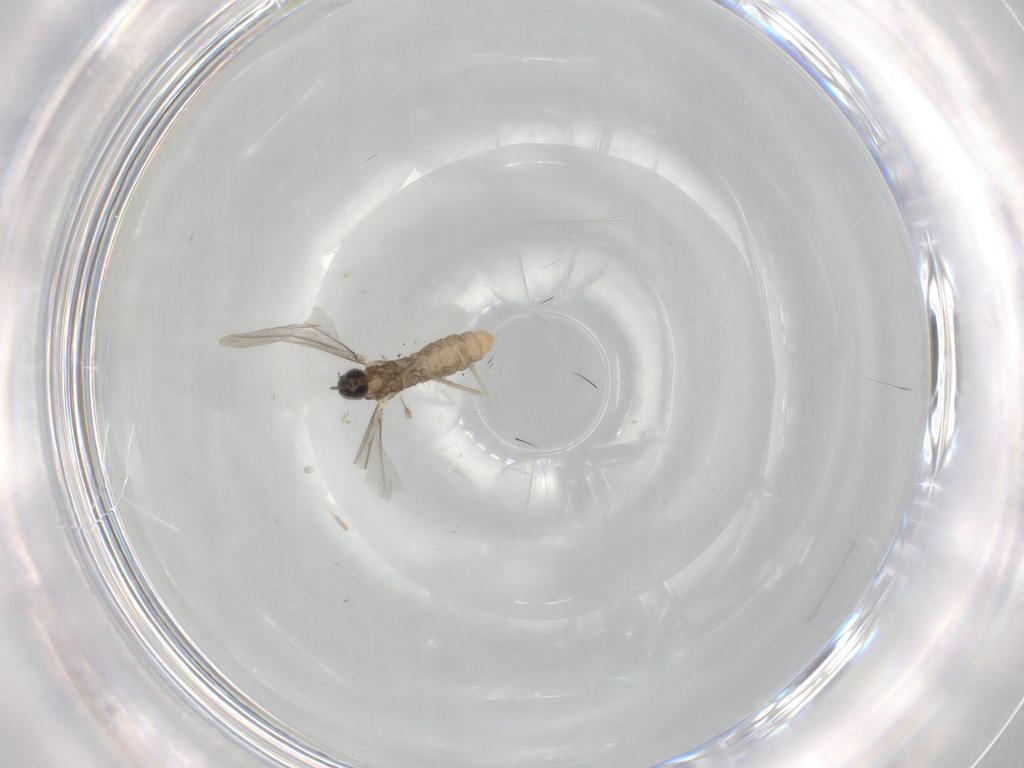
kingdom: Animalia
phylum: Arthropoda
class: Insecta
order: Diptera
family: Cecidomyiidae
